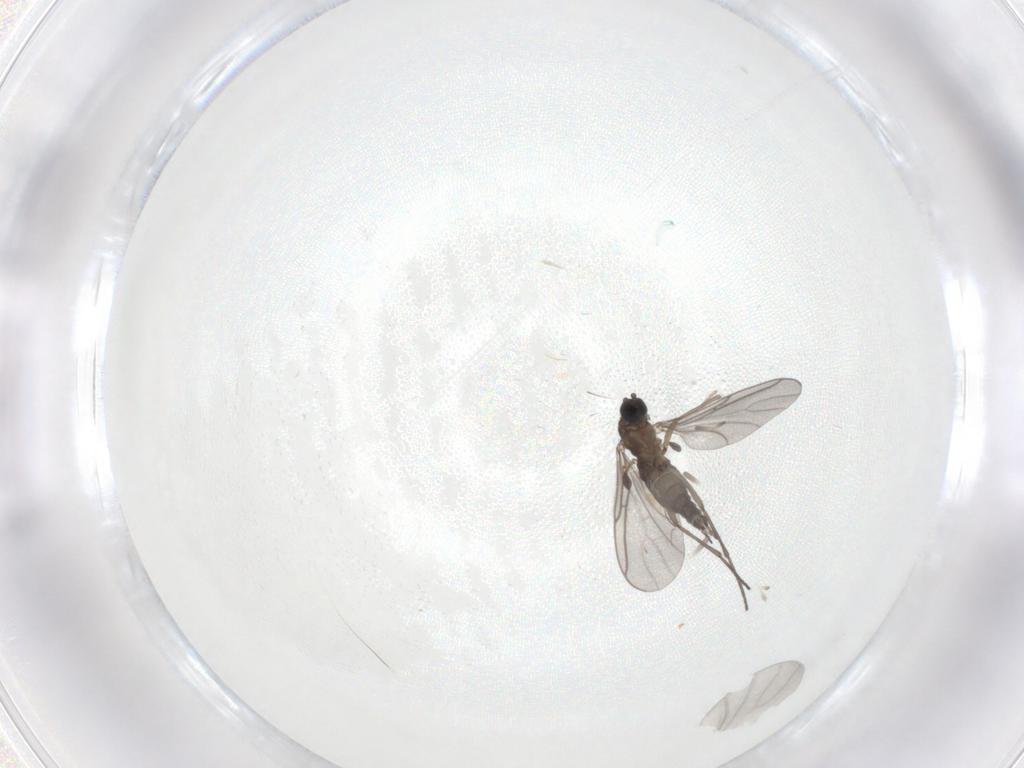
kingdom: Animalia
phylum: Arthropoda
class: Insecta
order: Diptera
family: Sciaridae
